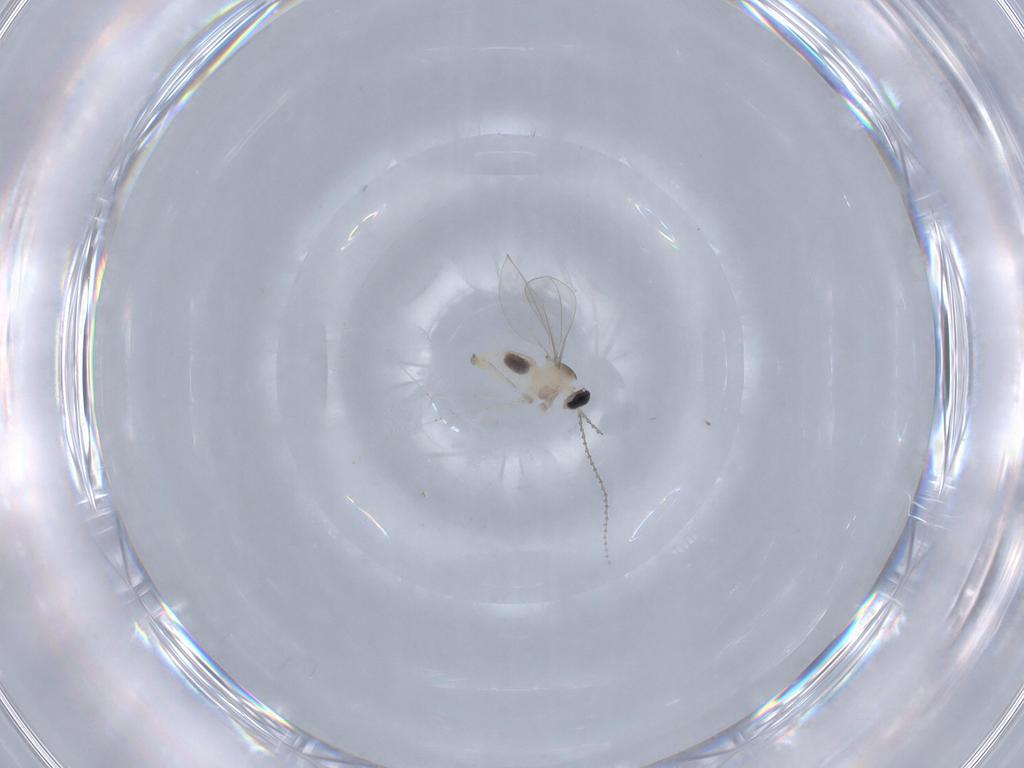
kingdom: Animalia
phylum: Arthropoda
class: Insecta
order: Diptera
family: Cecidomyiidae
